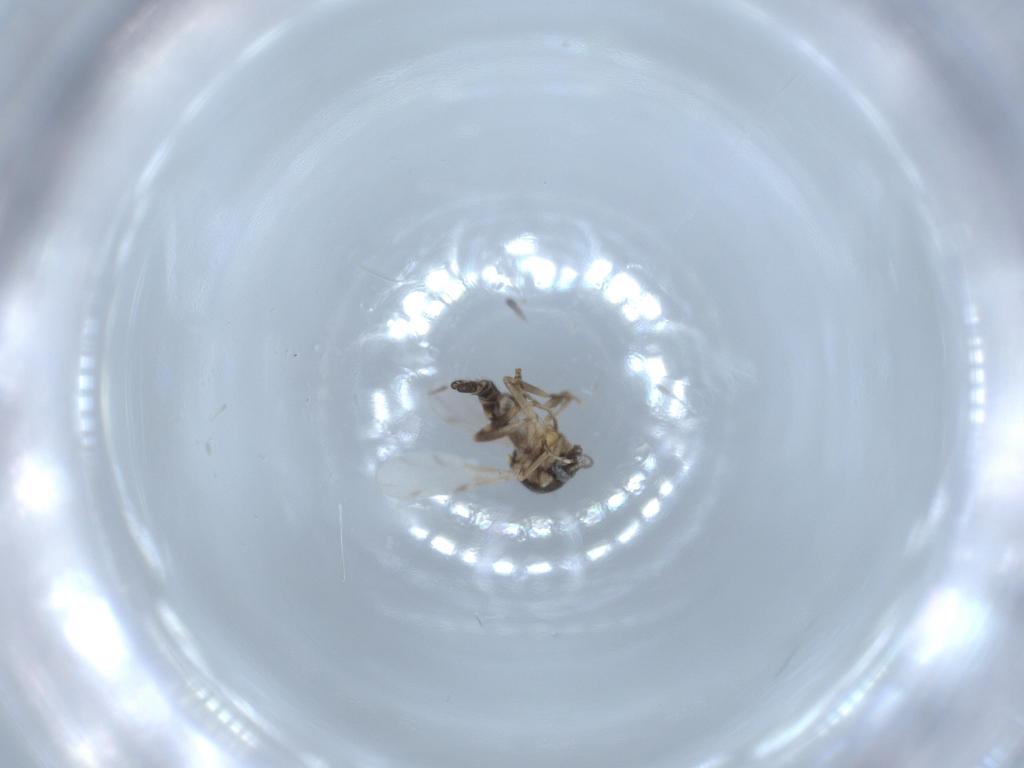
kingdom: Animalia
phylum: Arthropoda
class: Insecta
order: Diptera
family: Ceratopogonidae
